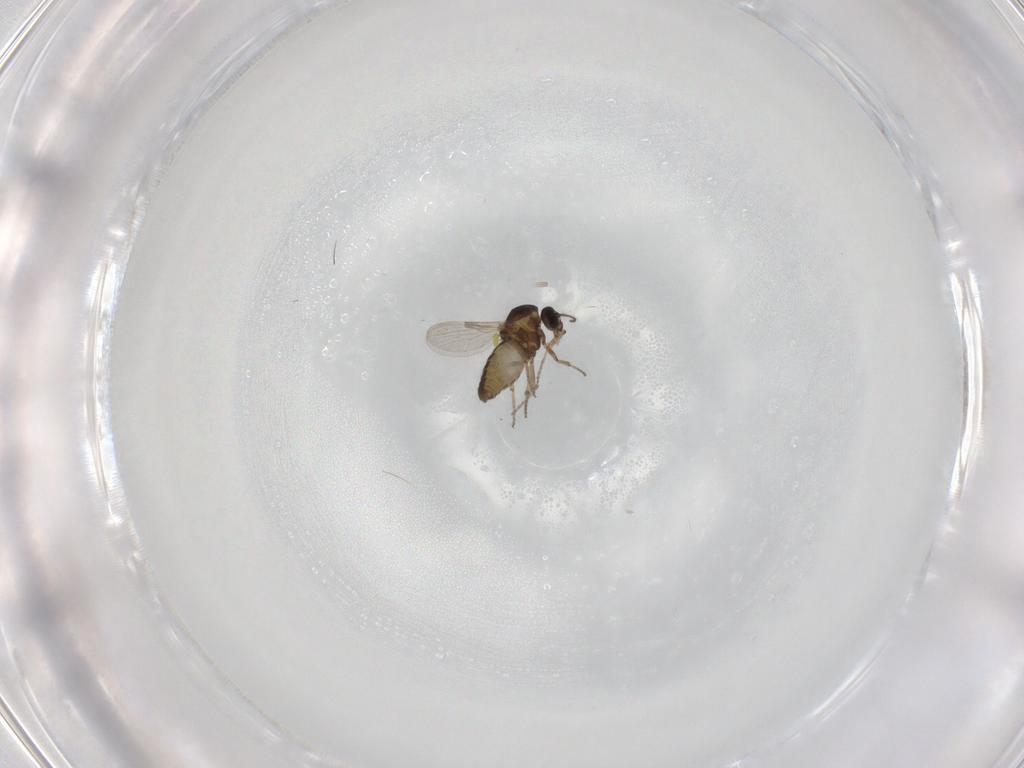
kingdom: Animalia
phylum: Arthropoda
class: Insecta
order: Diptera
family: Ceratopogonidae
